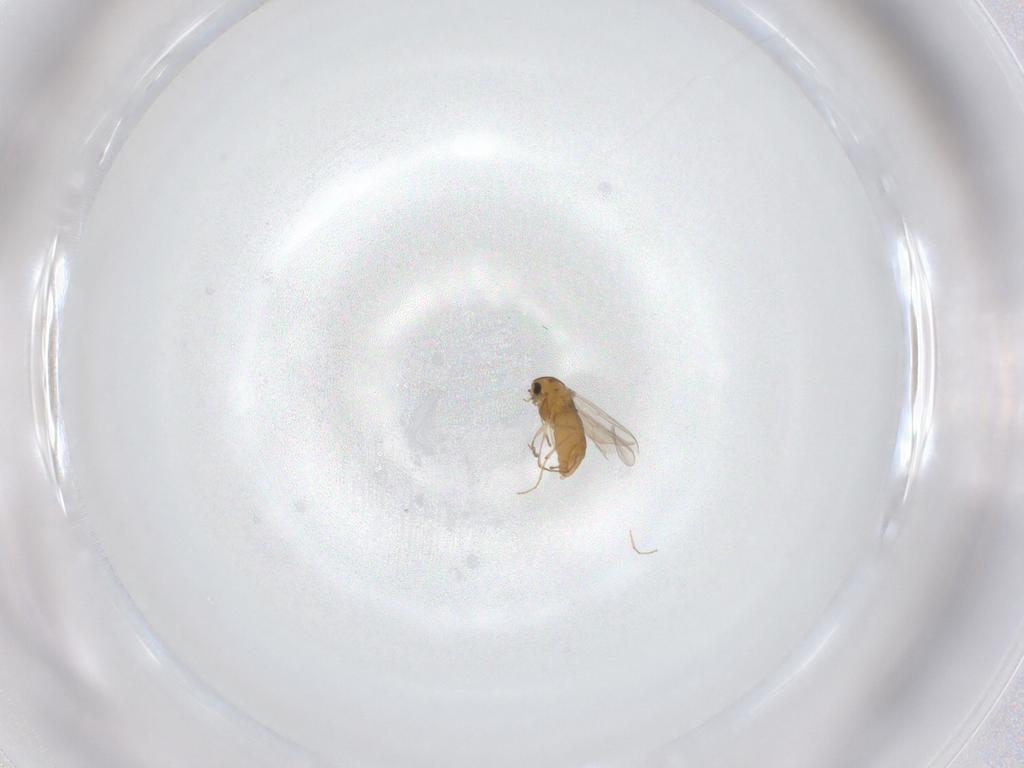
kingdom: Animalia
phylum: Arthropoda
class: Insecta
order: Diptera
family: Chironomidae
